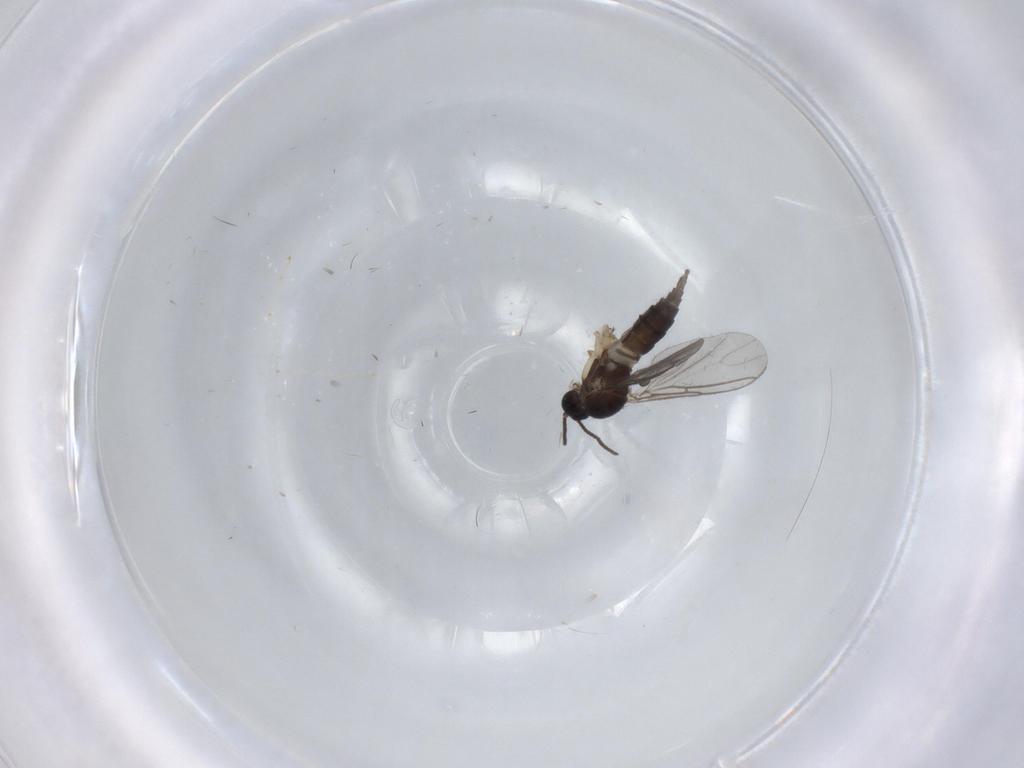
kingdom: Animalia
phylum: Arthropoda
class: Insecta
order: Diptera
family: Sciaridae
